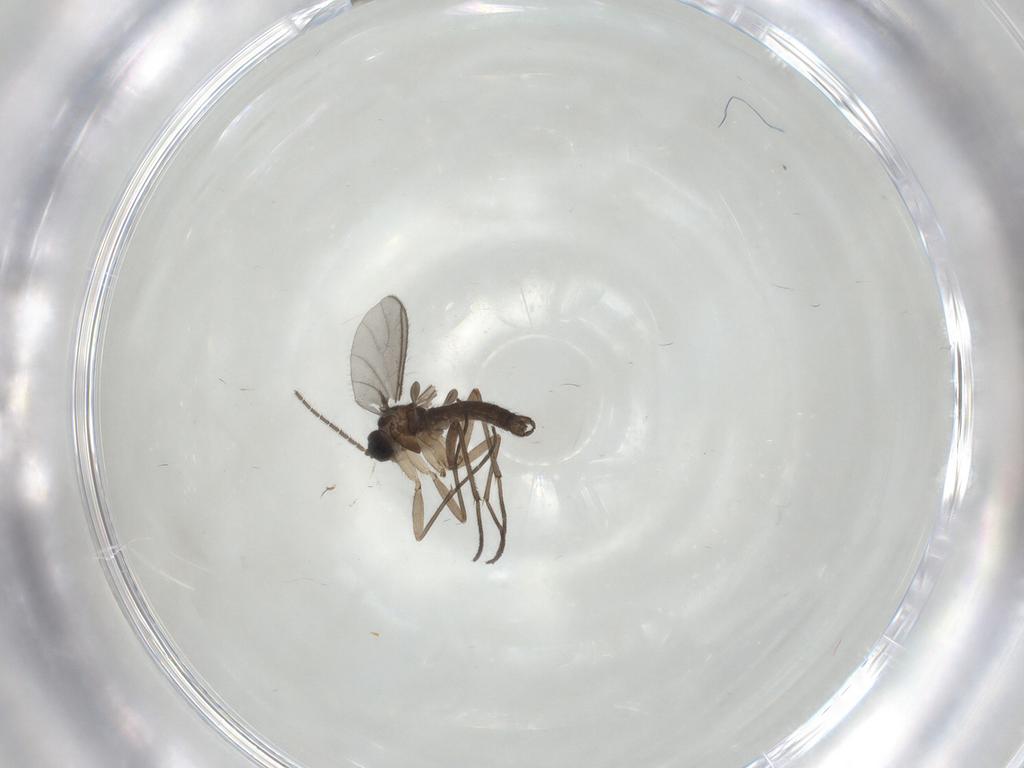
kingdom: Animalia
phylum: Arthropoda
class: Insecta
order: Diptera
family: Sciaridae
